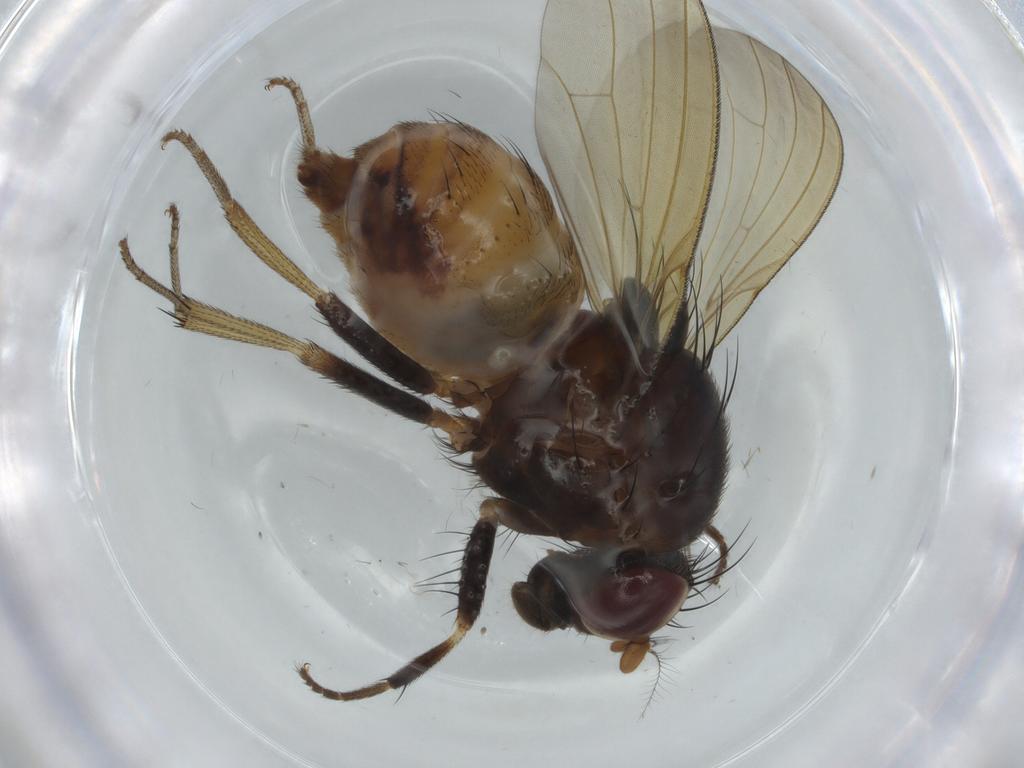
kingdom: Animalia
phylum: Arthropoda
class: Insecta
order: Diptera
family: Lauxaniidae
